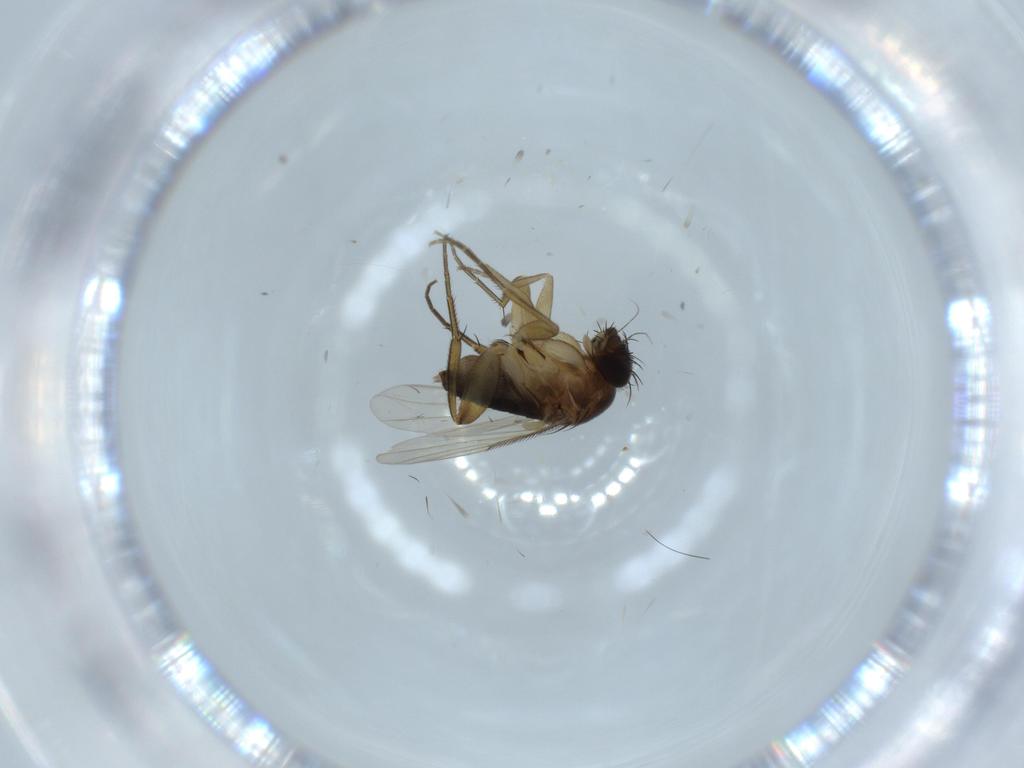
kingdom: Animalia
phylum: Arthropoda
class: Insecta
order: Diptera
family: Phoridae
